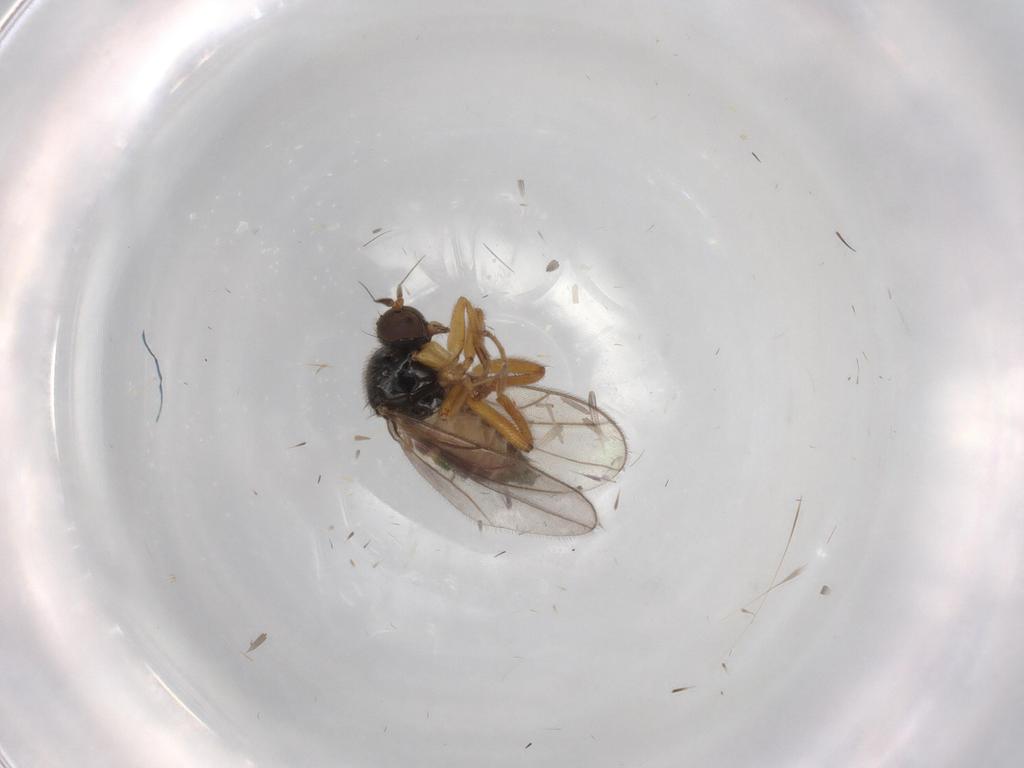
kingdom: Animalia
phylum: Arthropoda
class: Insecta
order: Diptera
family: Hybotidae
